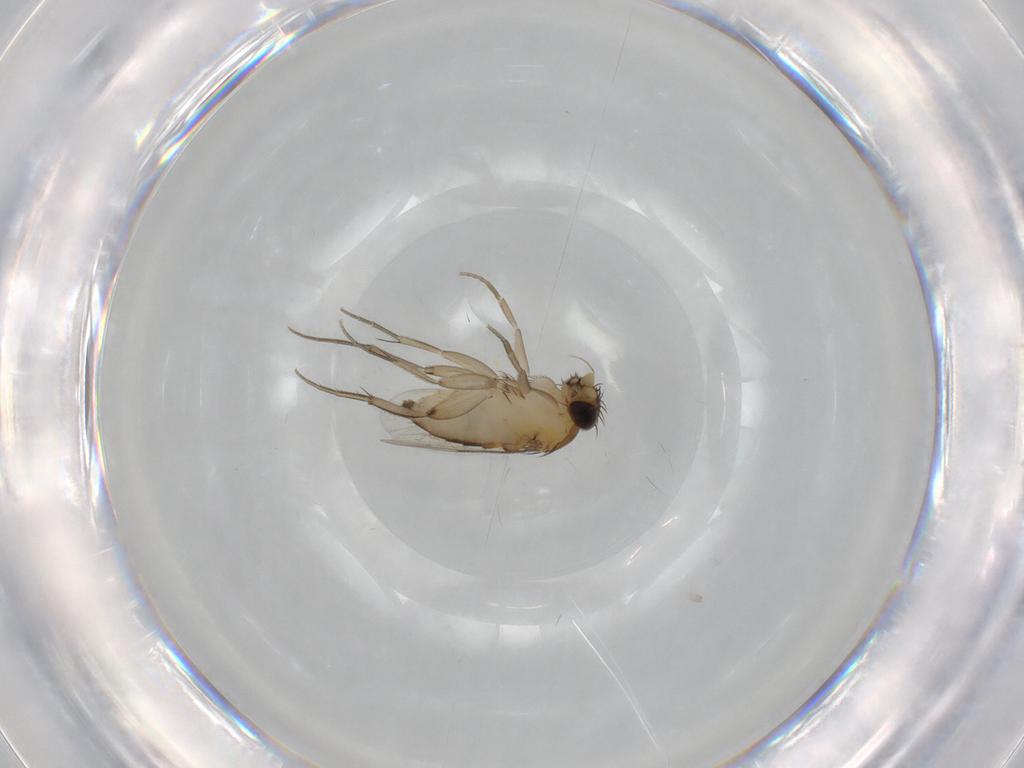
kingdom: Animalia
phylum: Arthropoda
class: Insecta
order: Diptera
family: Phoridae
